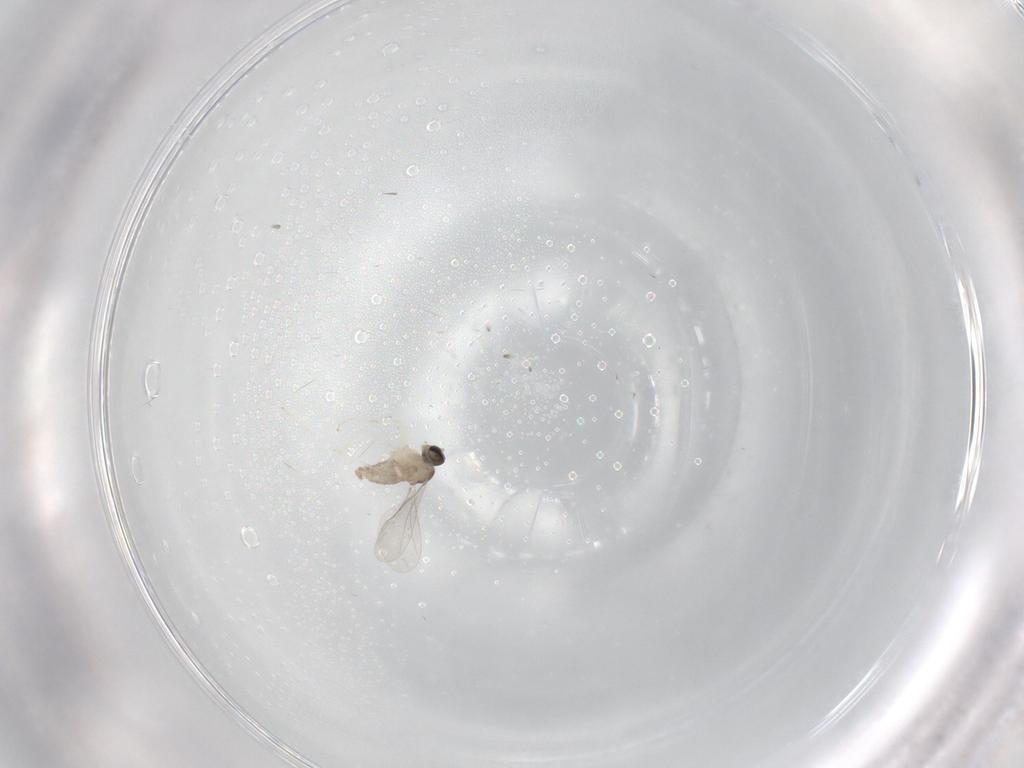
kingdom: Animalia
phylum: Arthropoda
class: Insecta
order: Diptera
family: Cecidomyiidae
